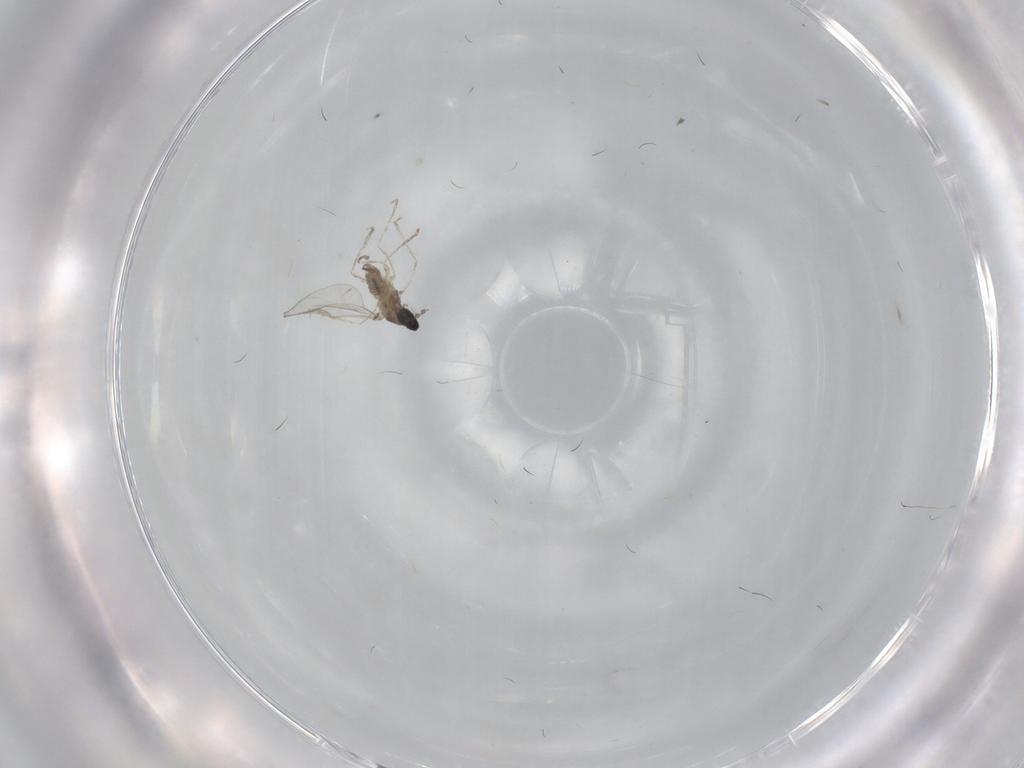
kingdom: Animalia
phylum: Arthropoda
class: Insecta
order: Diptera
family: Cecidomyiidae
